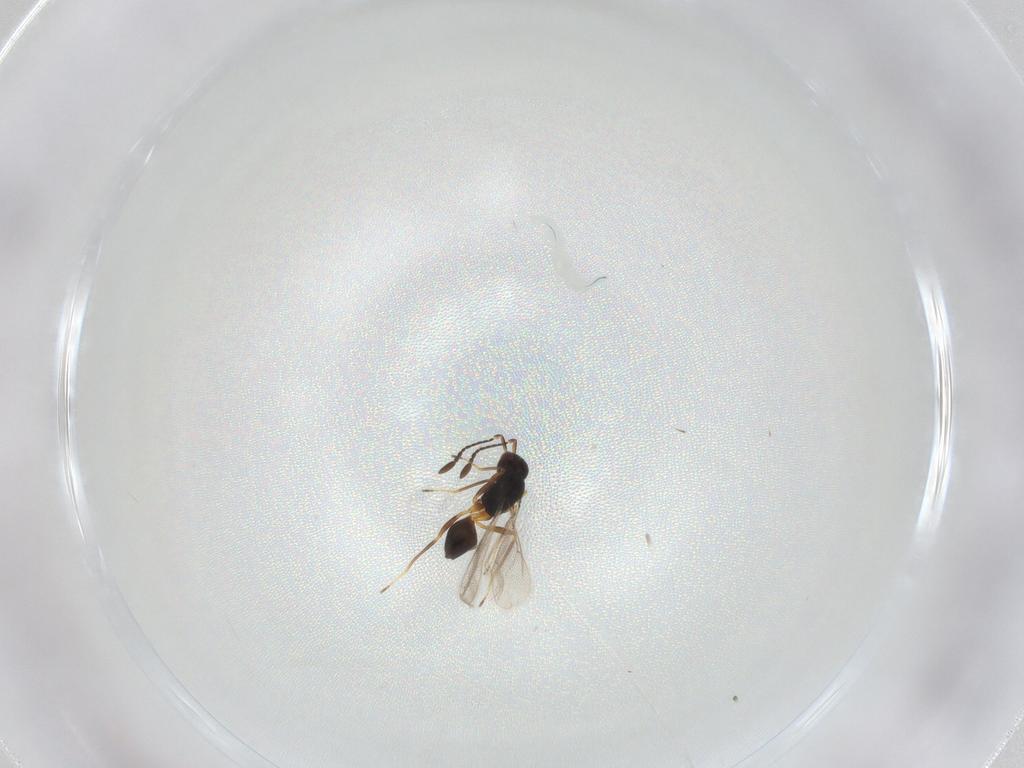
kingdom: Animalia
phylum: Arthropoda
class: Insecta
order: Hymenoptera
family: Mymaridae
